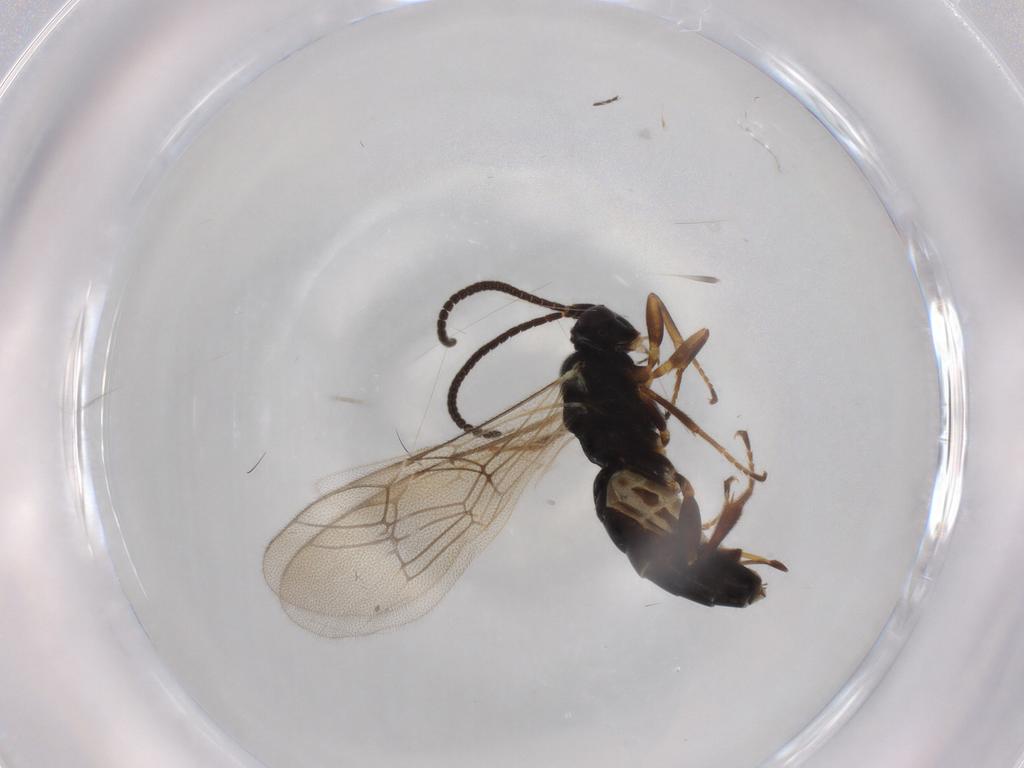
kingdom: Animalia
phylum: Arthropoda
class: Insecta
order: Hymenoptera
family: Ichneumonidae
